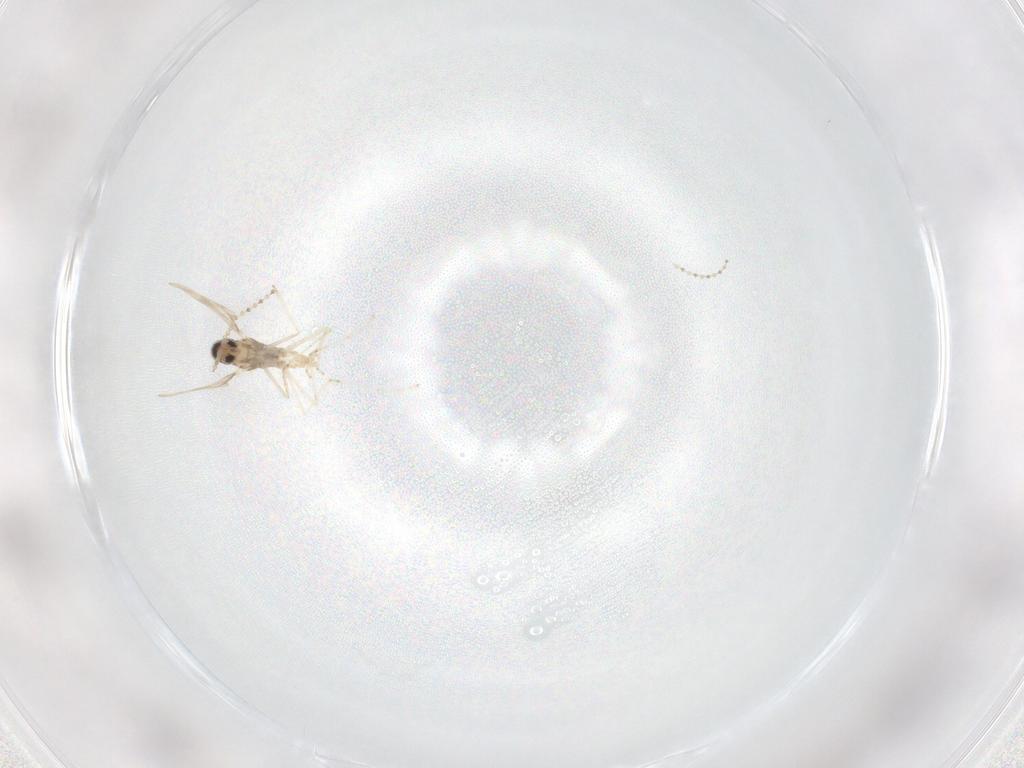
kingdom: Animalia
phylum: Arthropoda
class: Insecta
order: Diptera
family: Cecidomyiidae
